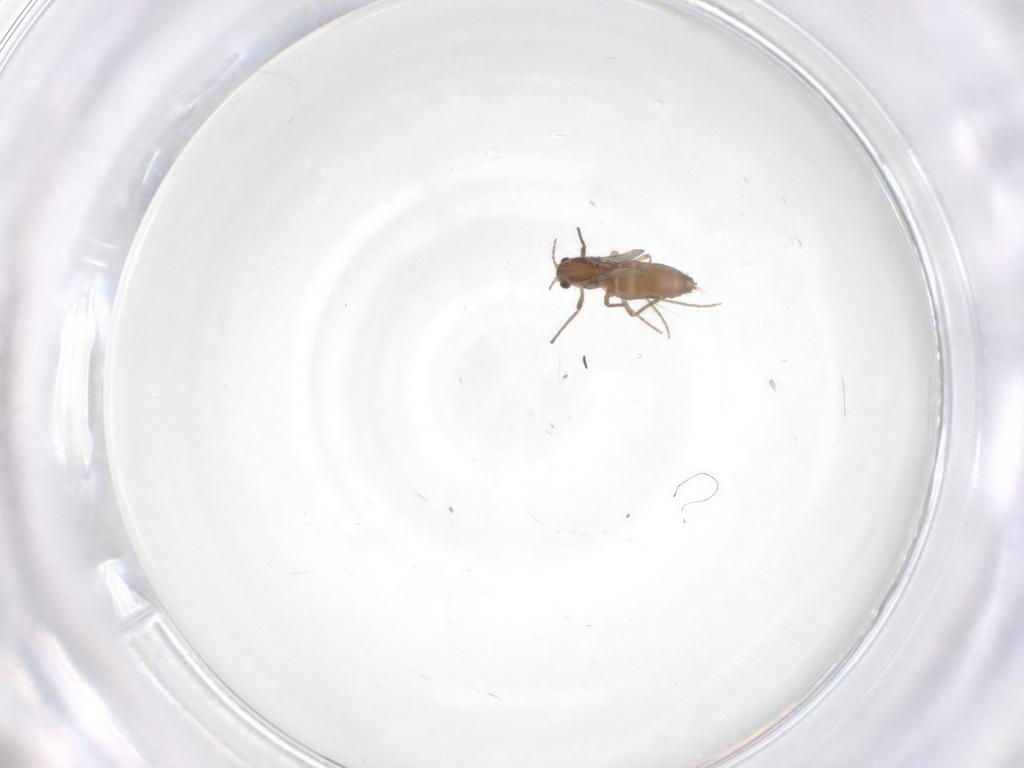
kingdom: Animalia
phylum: Arthropoda
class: Insecta
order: Diptera
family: Chironomidae
